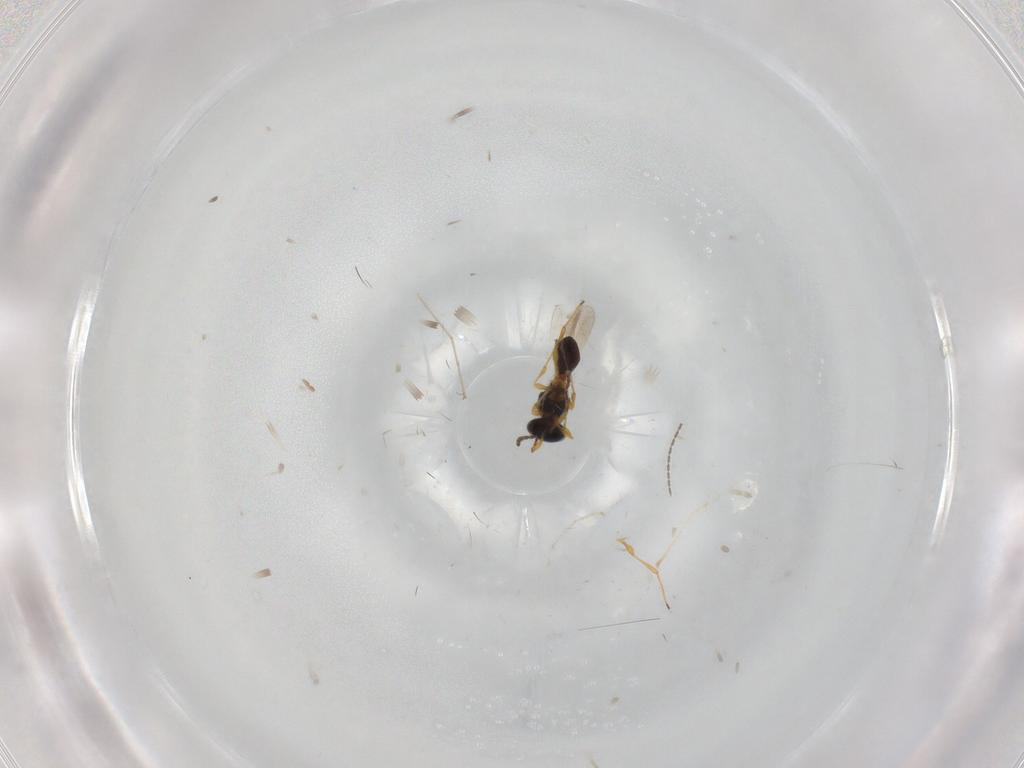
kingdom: Animalia
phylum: Arthropoda
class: Insecta
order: Hymenoptera
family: Platygastridae
